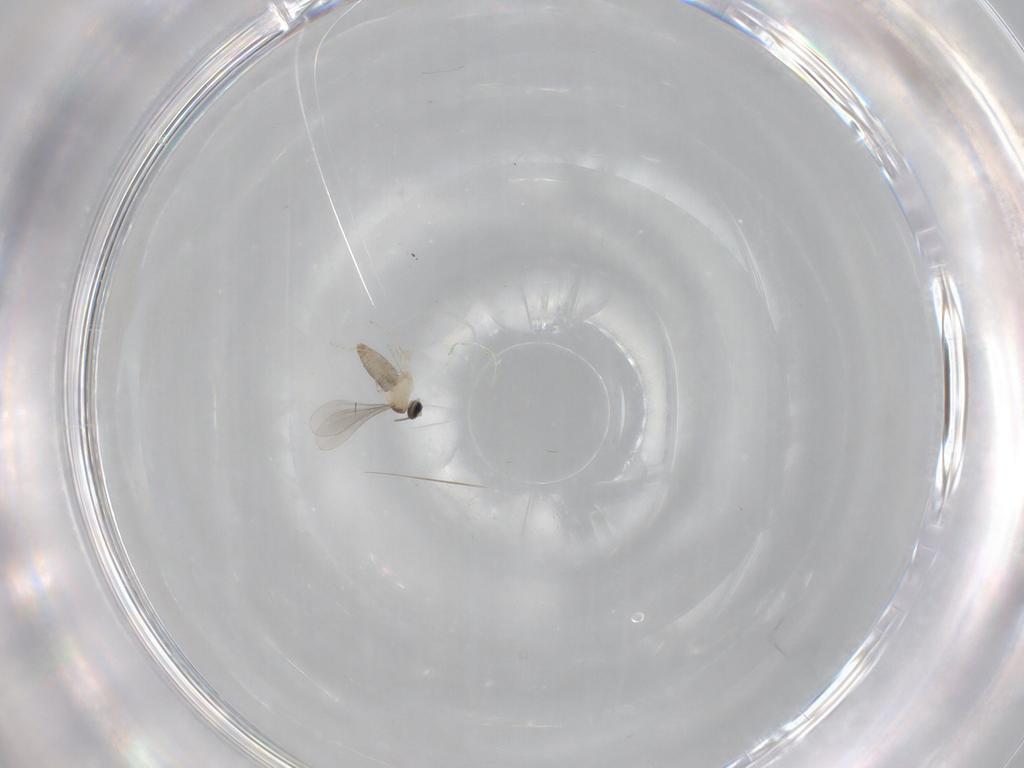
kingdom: Animalia
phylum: Arthropoda
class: Insecta
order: Diptera
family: Cecidomyiidae
